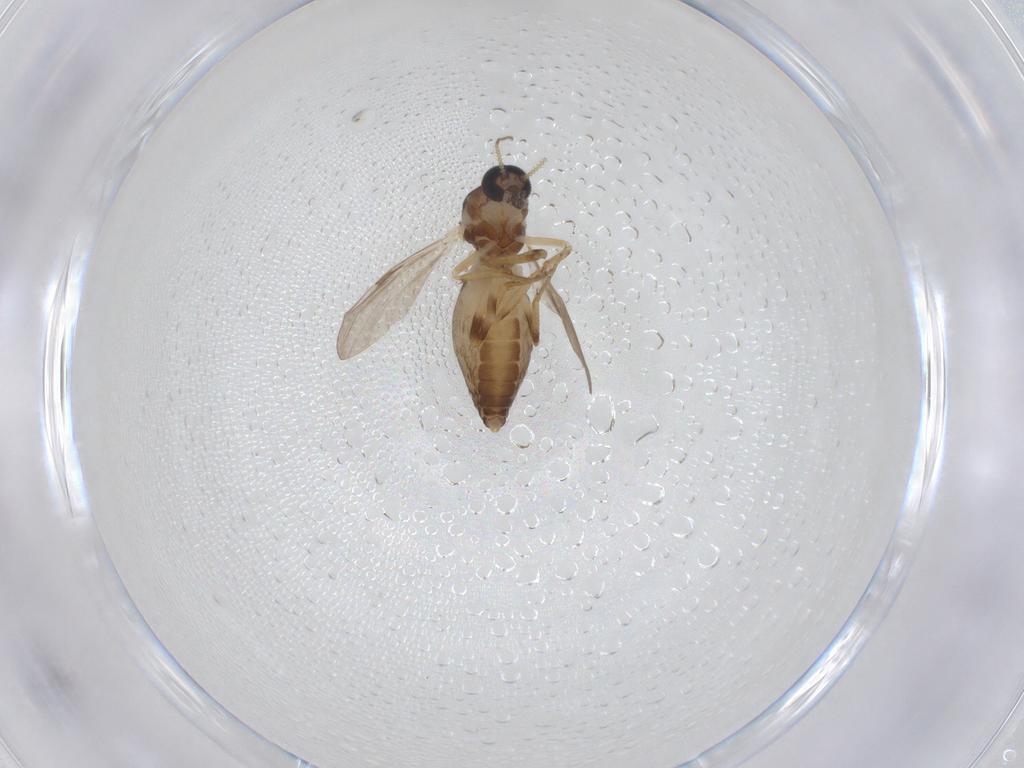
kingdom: Animalia
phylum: Arthropoda
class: Insecta
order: Diptera
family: Ceratopogonidae
